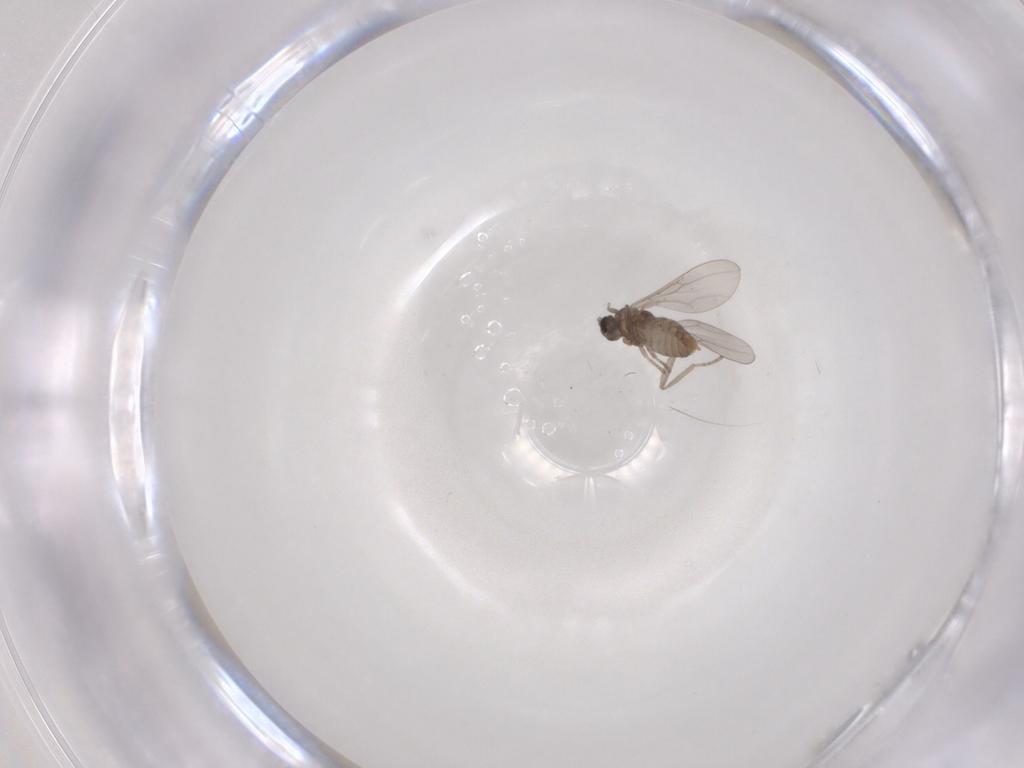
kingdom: Animalia
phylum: Arthropoda
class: Insecta
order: Diptera
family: Cecidomyiidae
